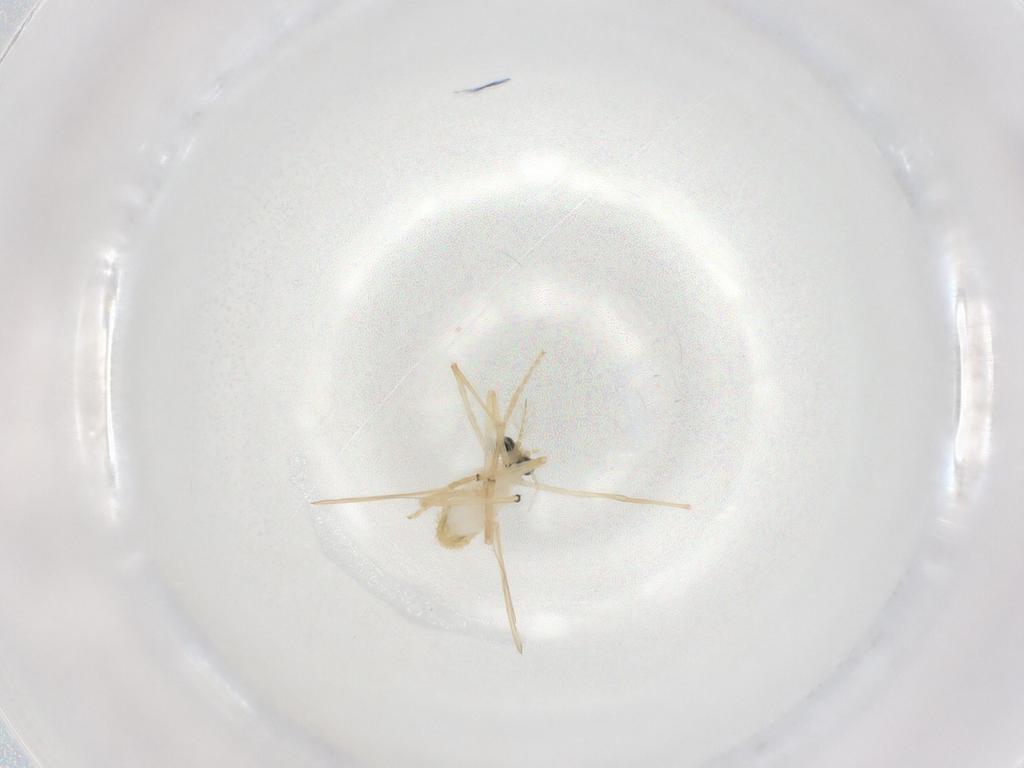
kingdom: Animalia
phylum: Arthropoda
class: Insecta
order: Diptera
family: Chironomidae
